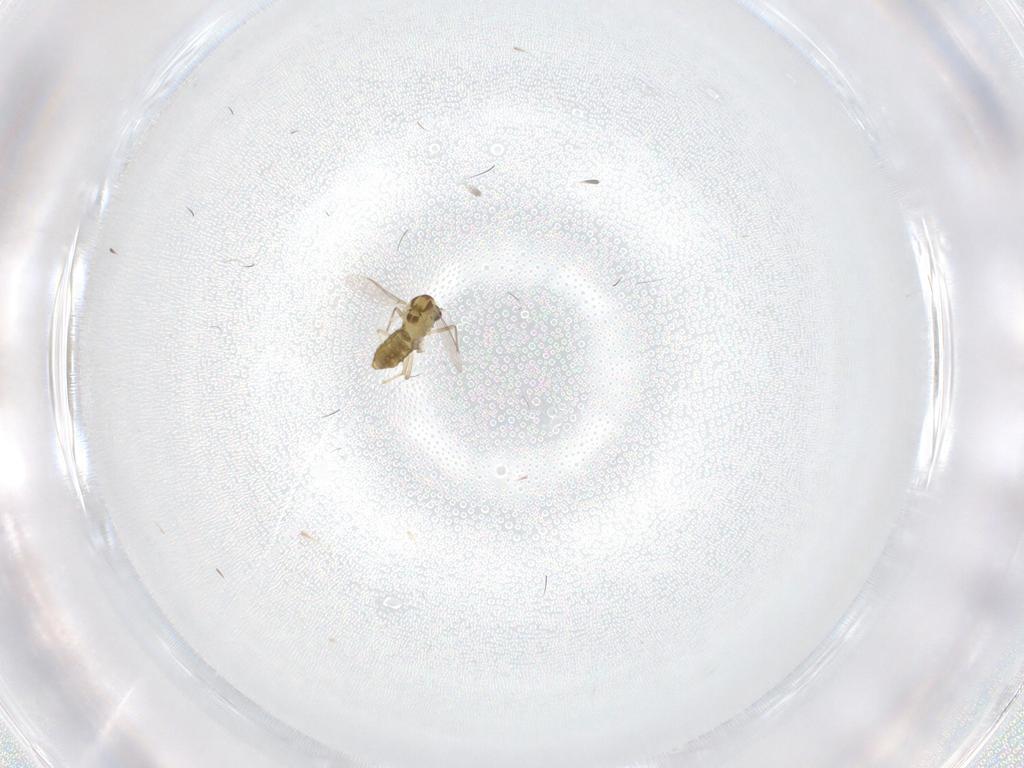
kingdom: Animalia
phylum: Arthropoda
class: Insecta
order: Diptera
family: Chironomidae
